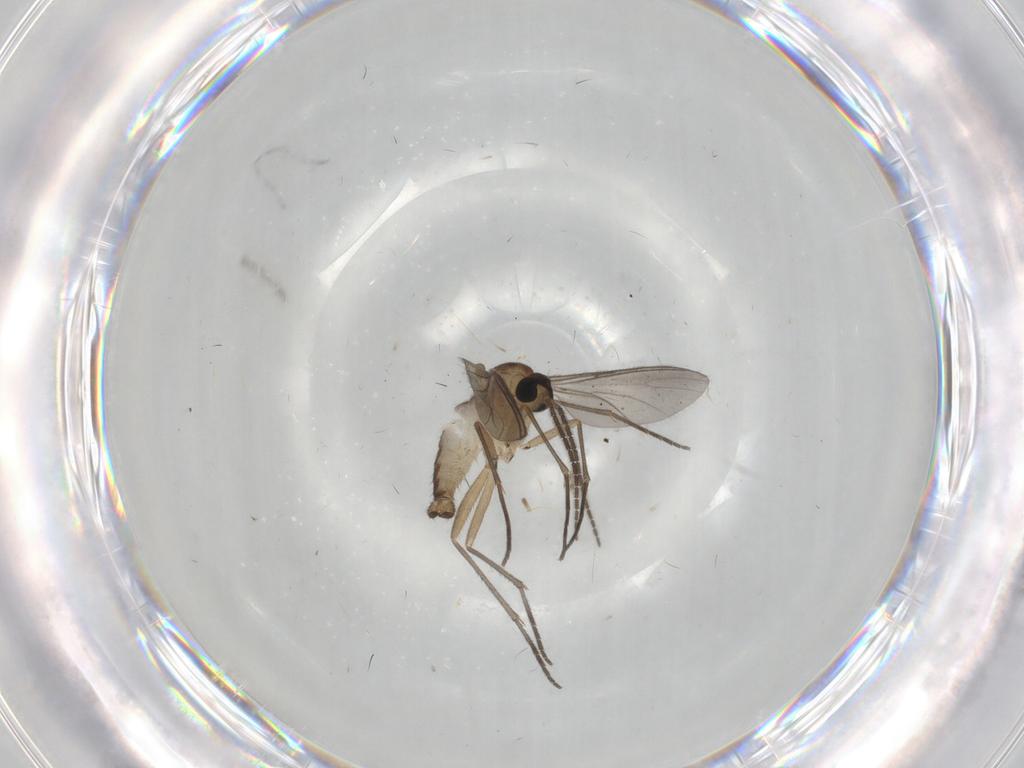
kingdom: Animalia
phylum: Arthropoda
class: Insecta
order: Diptera
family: Sciaridae
